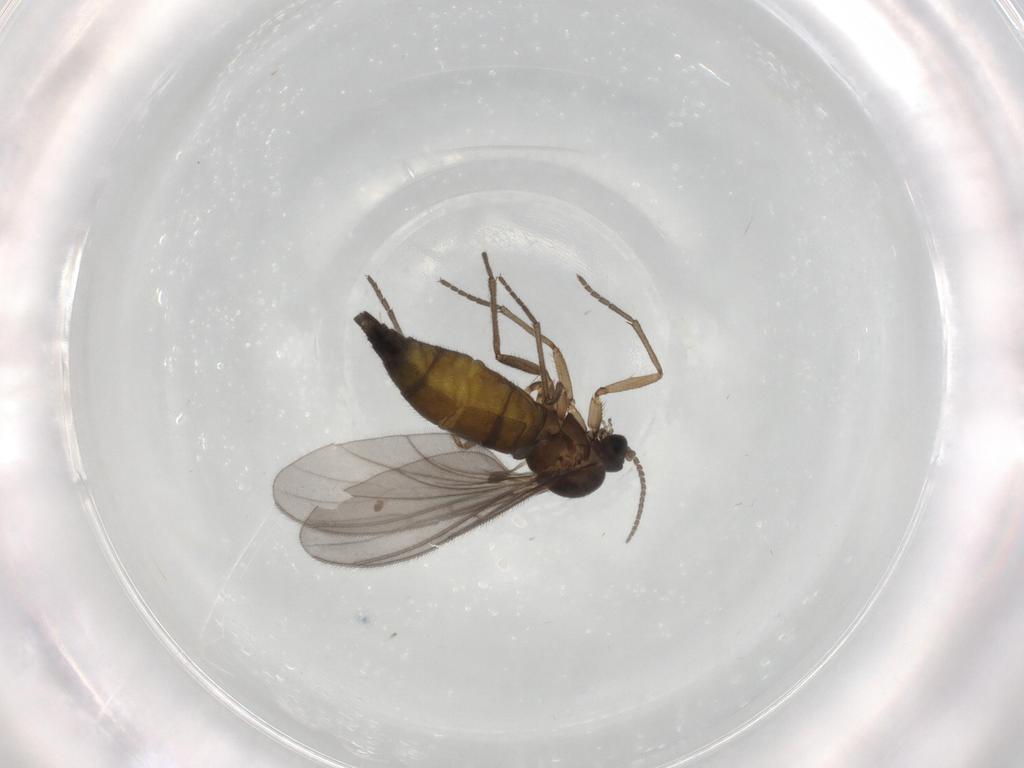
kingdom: Animalia
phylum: Arthropoda
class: Insecta
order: Diptera
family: Sciaridae
